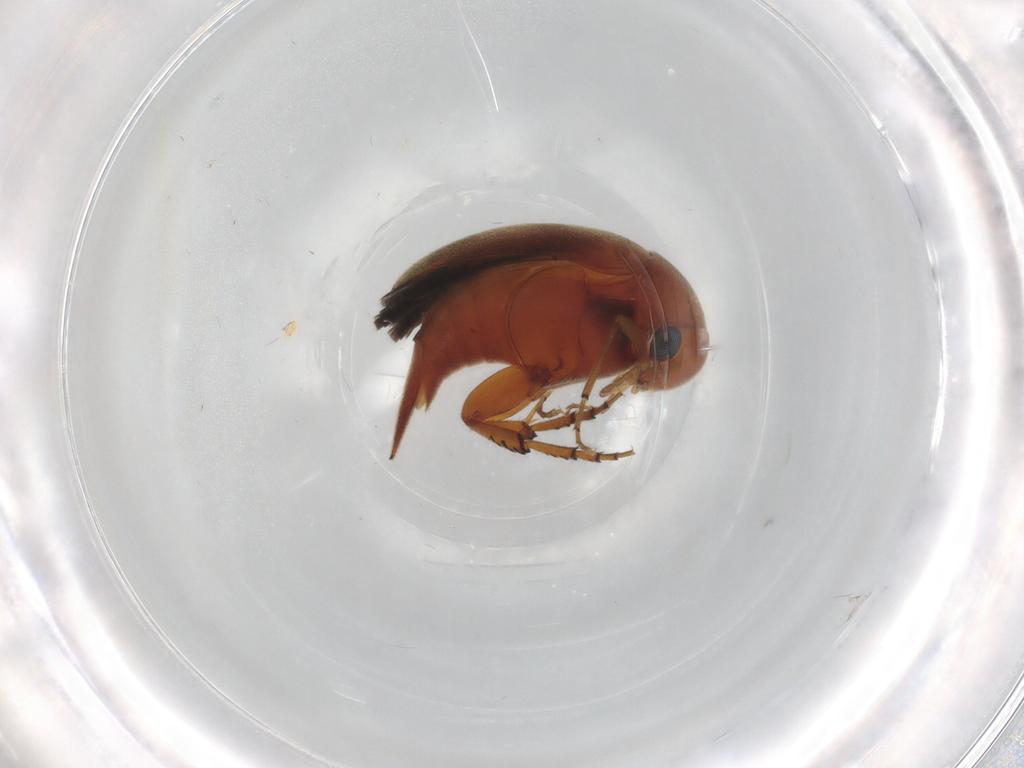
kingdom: Animalia
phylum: Arthropoda
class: Insecta
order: Coleoptera
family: Mordellidae
